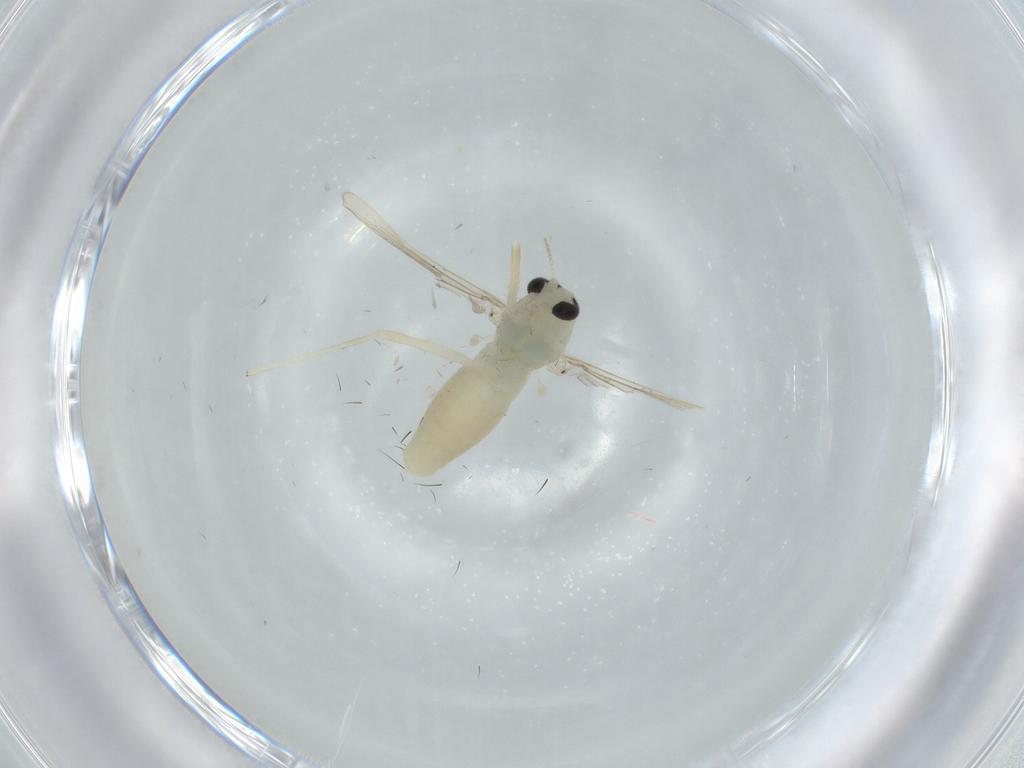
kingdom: Animalia
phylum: Arthropoda
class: Insecta
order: Diptera
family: Chironomidae
